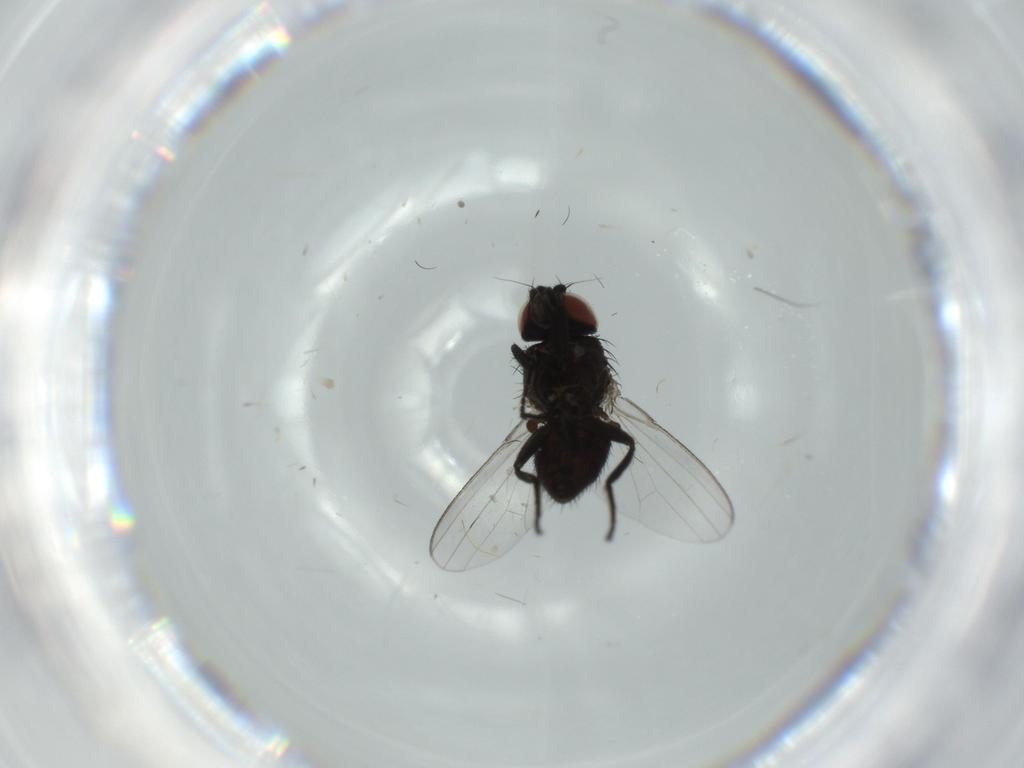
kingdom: Animalia
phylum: Arthropoda
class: Insecta
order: Diptera
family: Milichiidae
